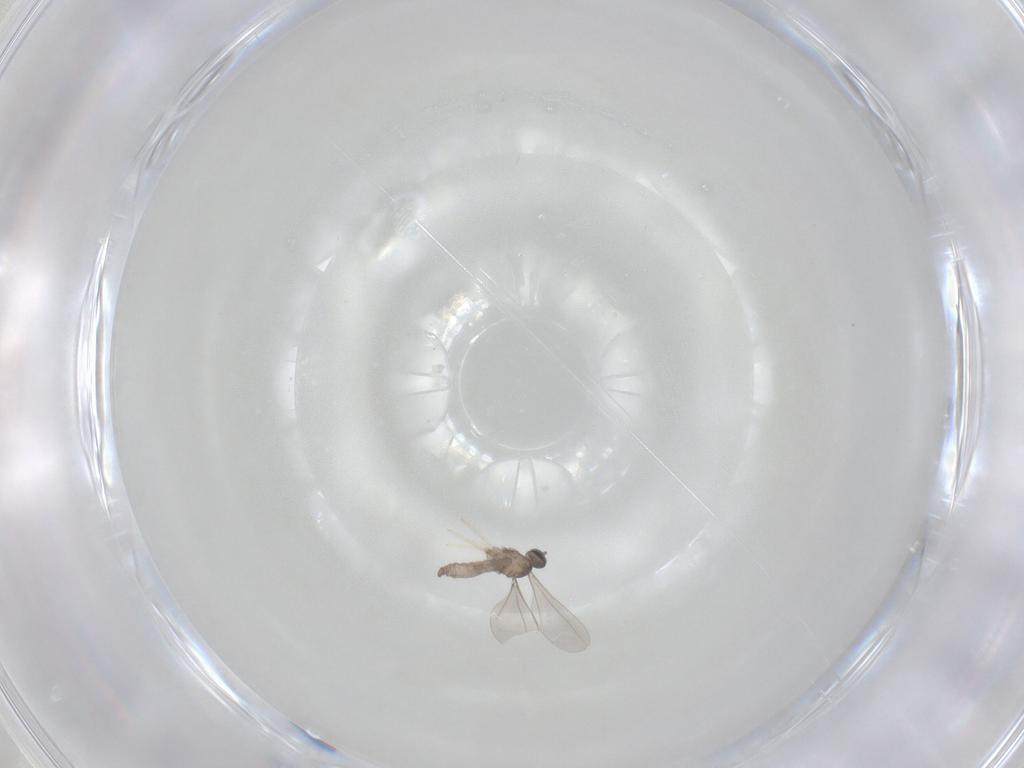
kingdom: Animalia
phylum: Arthropoda
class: Insecta
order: Diptera
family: Cecidomyiidae
